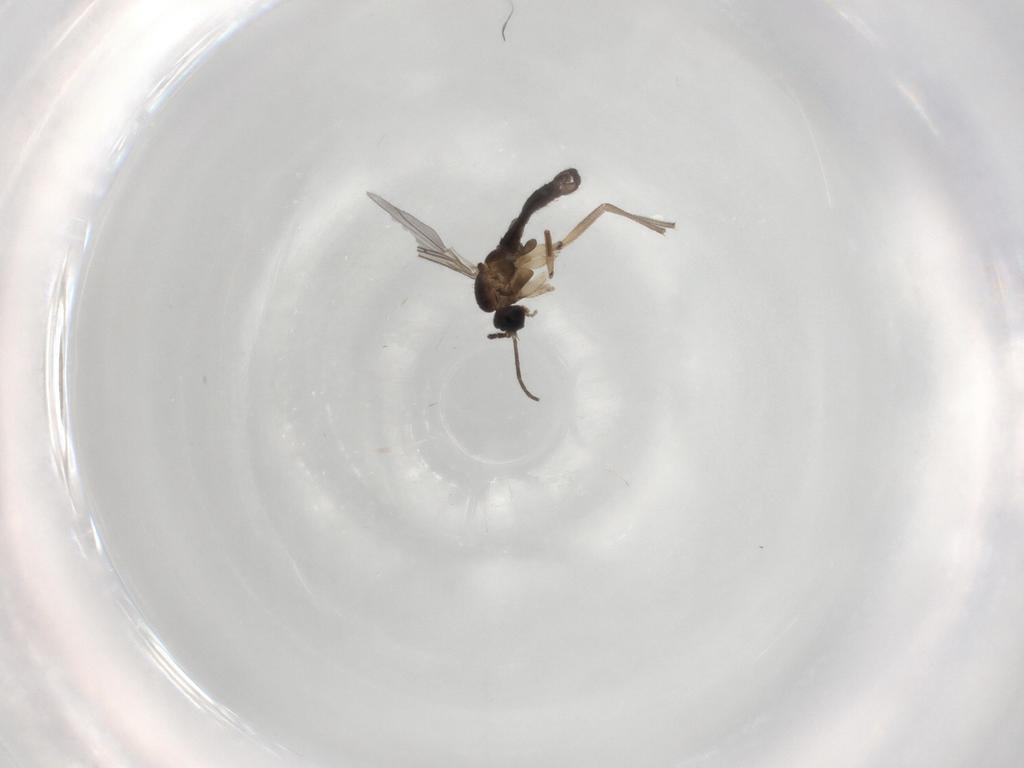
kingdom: Animalia
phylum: Arthropoda
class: Insecta
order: Diptera
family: Sciaridae
